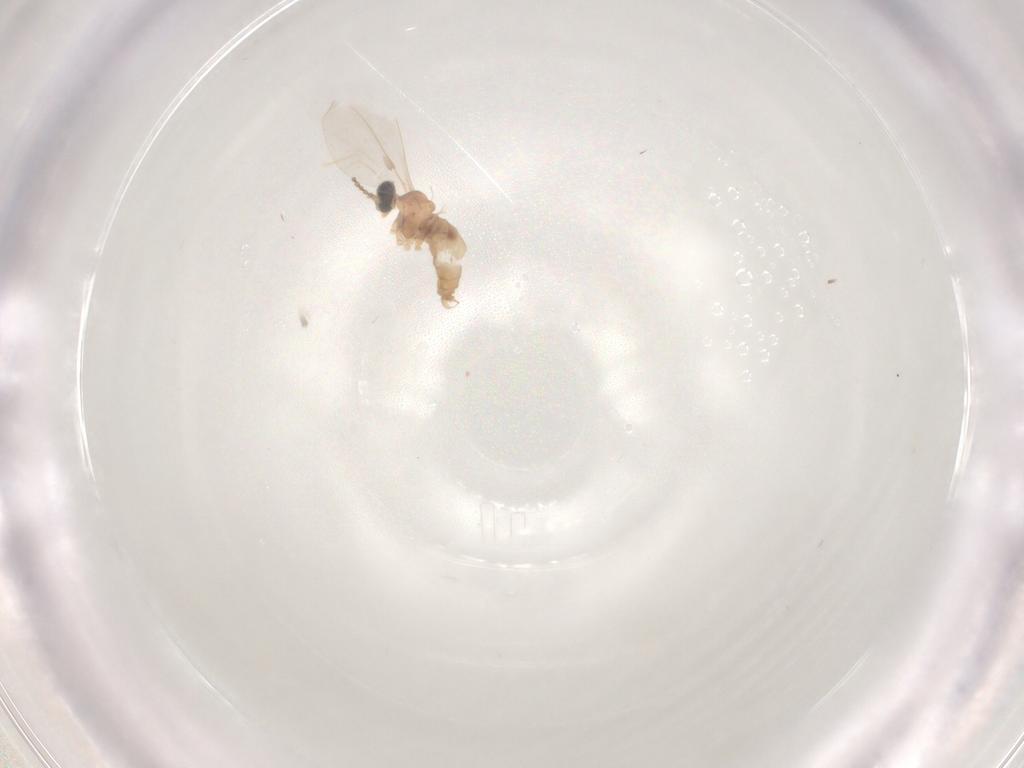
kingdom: Animalia
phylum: Arthropoda
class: Insecta
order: Diptera
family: Cecidomyiidae
